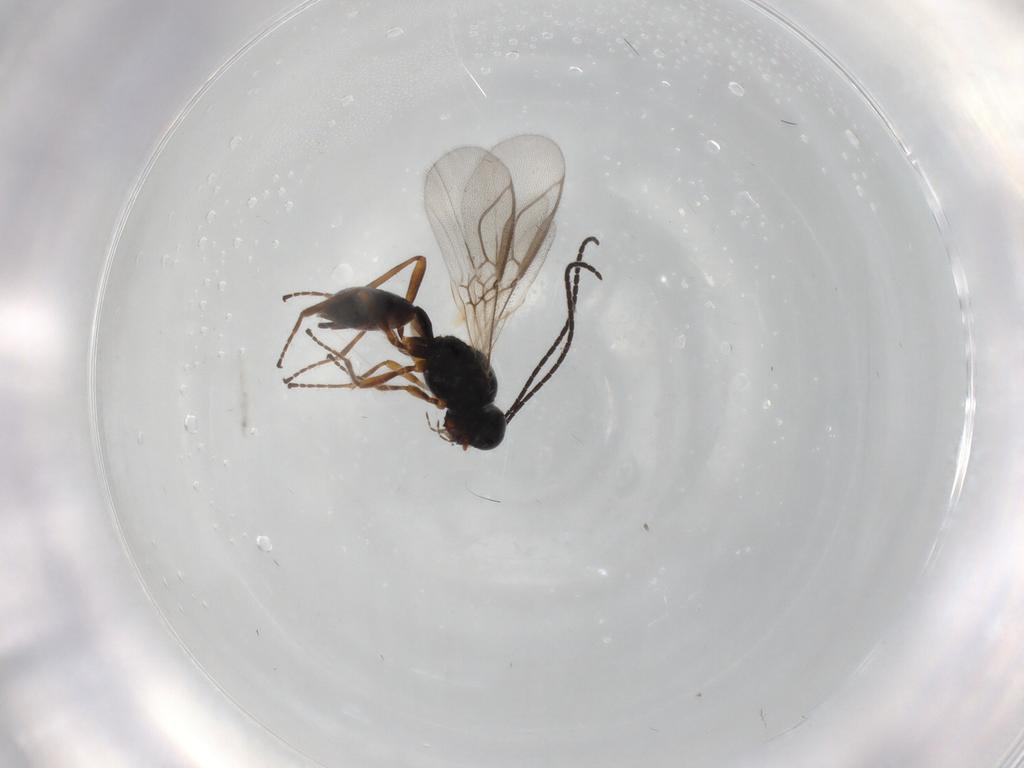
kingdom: Animalia
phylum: Arthropoda
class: Insecta
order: Hymenoptera
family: Braconidae
